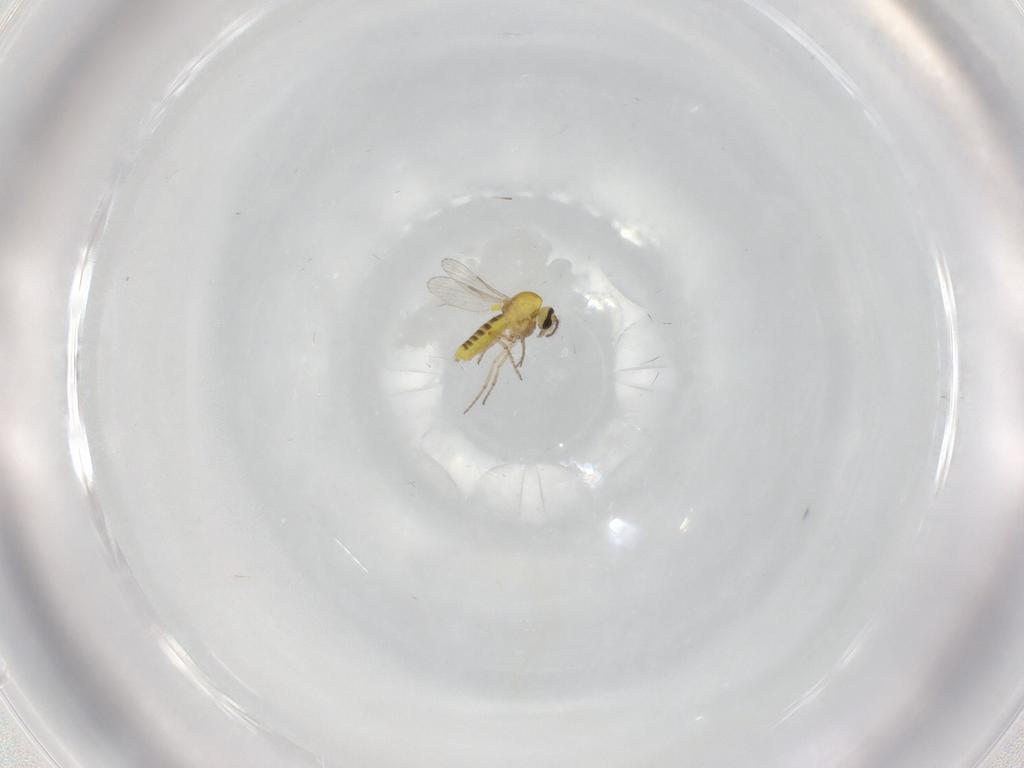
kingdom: Animalia
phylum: Arthropoda
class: Insecta
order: Diptera
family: Ceratopogonidae
